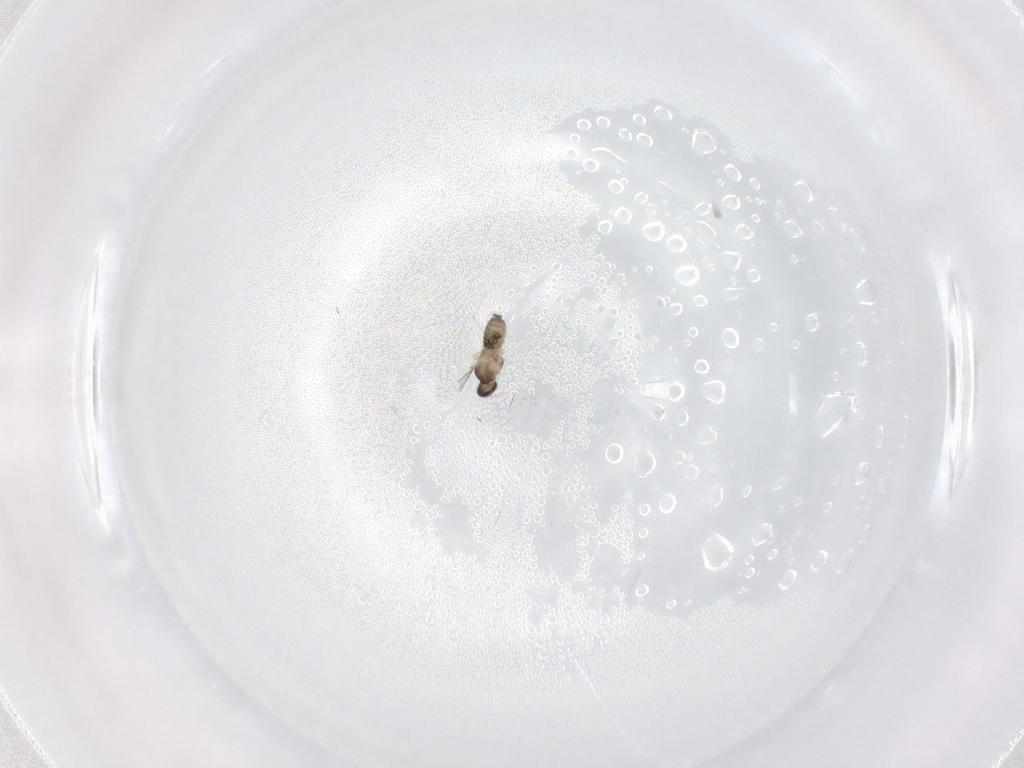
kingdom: Animalia
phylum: Arthropoda
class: Insecta
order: Diptera
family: Cecidomyiidae
